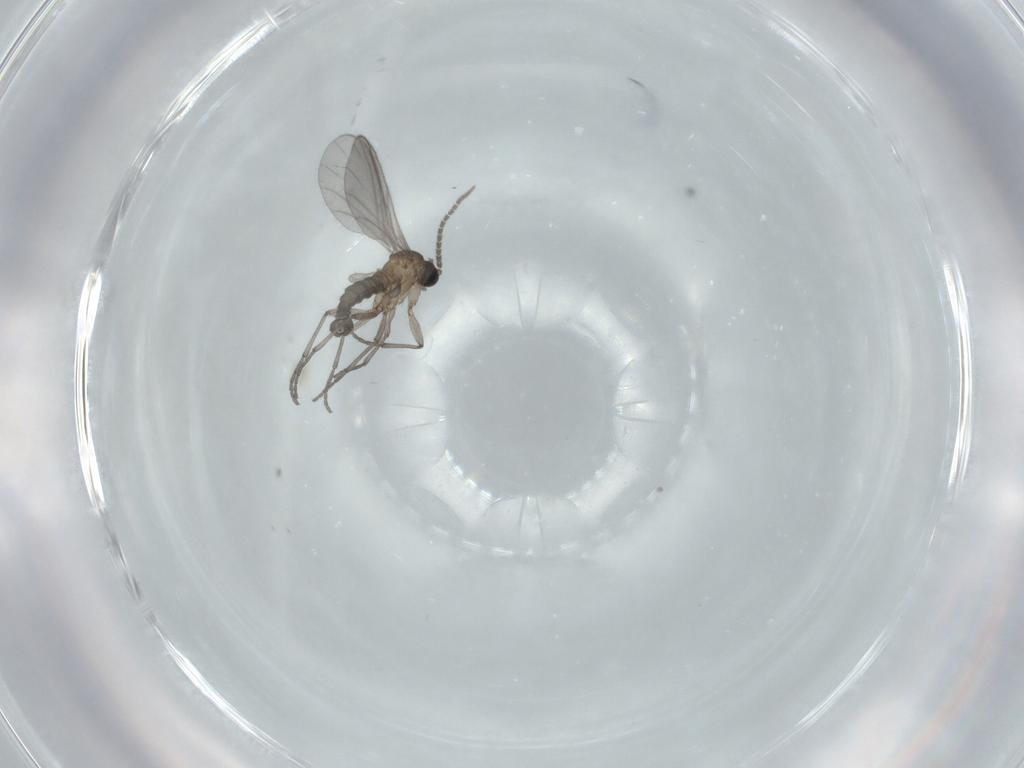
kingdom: Animalia
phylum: Arthropoda
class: Insecta
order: Diptera
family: Sciaridae
